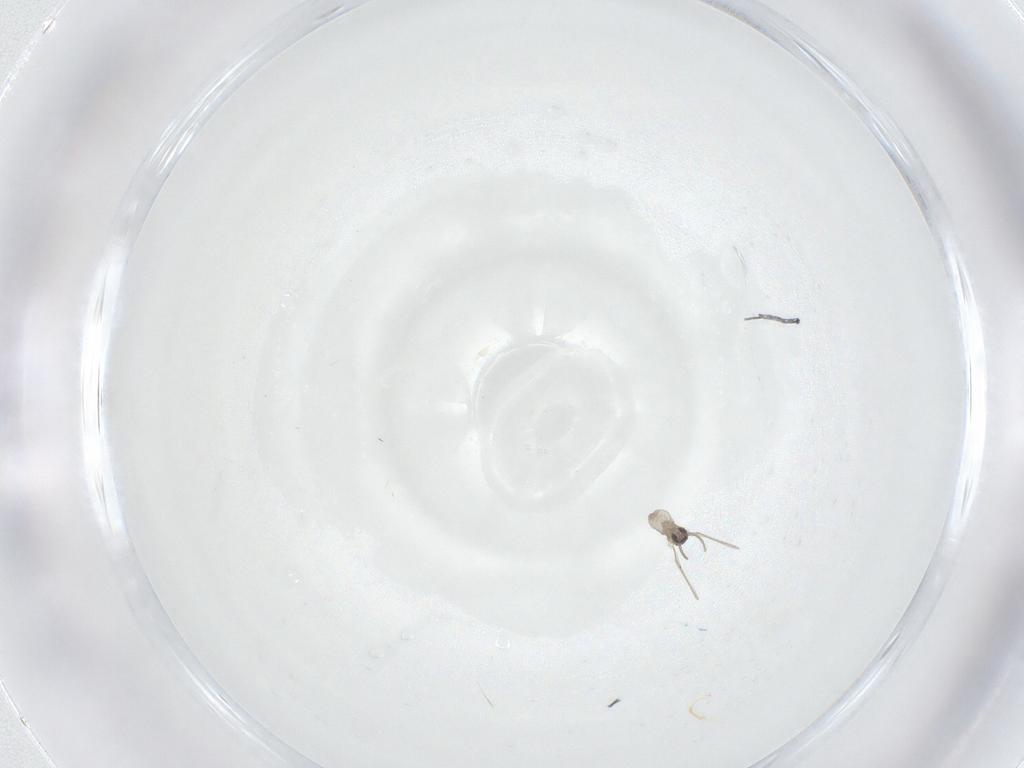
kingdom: Animalia
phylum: Arthropoda
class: Insecta
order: Diptera
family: Cecidomyiidae
